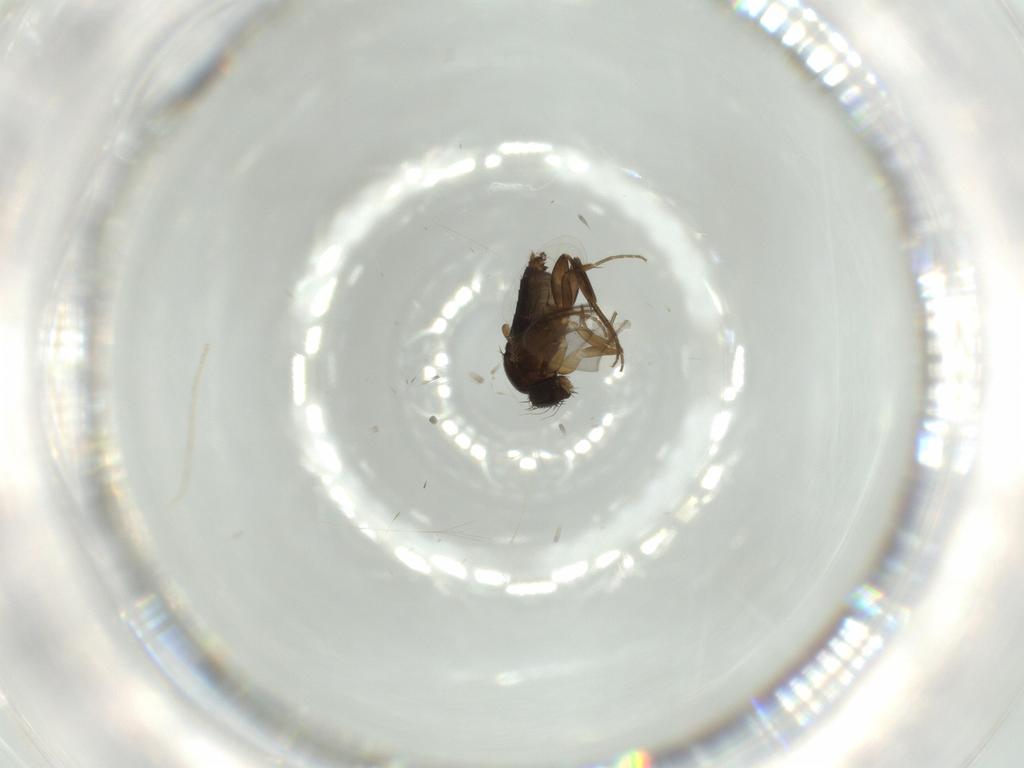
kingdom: Animalia
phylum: Arthropoda
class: Insecta
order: Diptera
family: Phoridae
